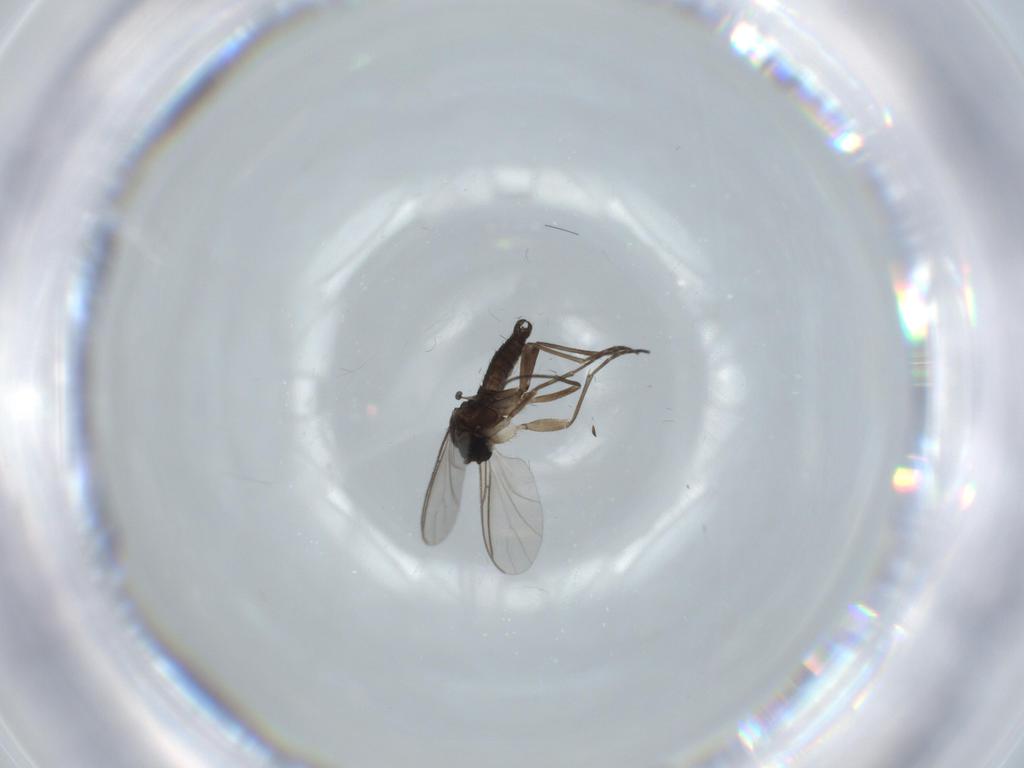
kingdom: Animalia
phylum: Arthropoda
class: Insecta
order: Diptera
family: Sciaridae
